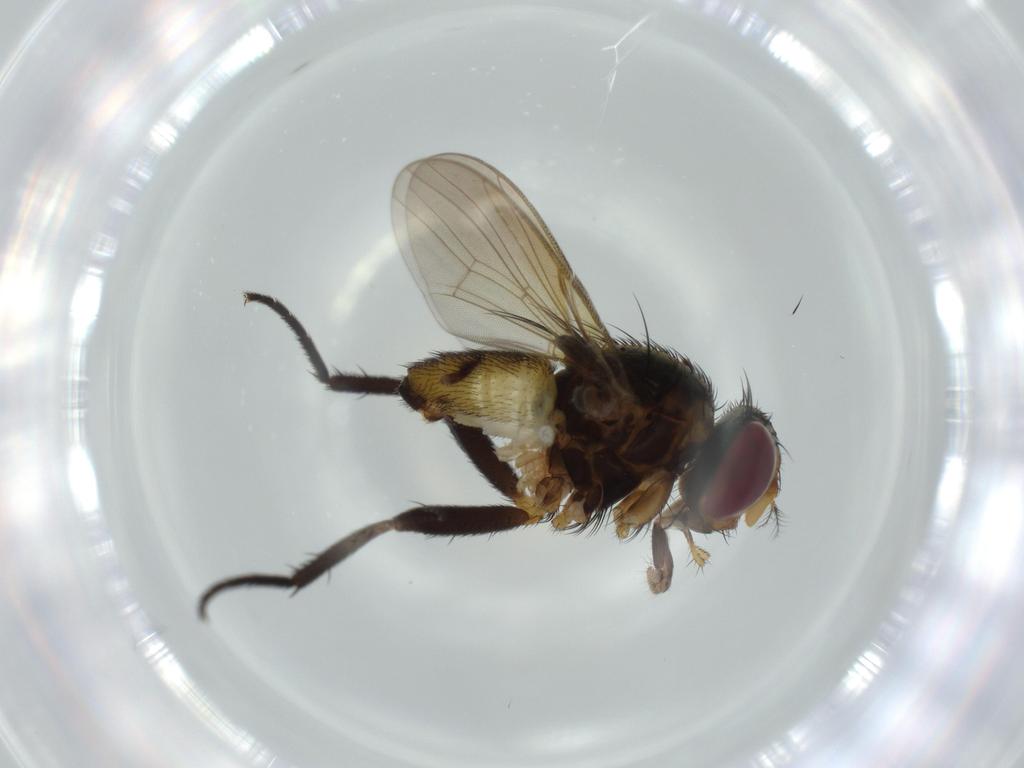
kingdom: Animalia
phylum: Arthropoda
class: Insecta
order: Diptera
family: Anthomyiidae
